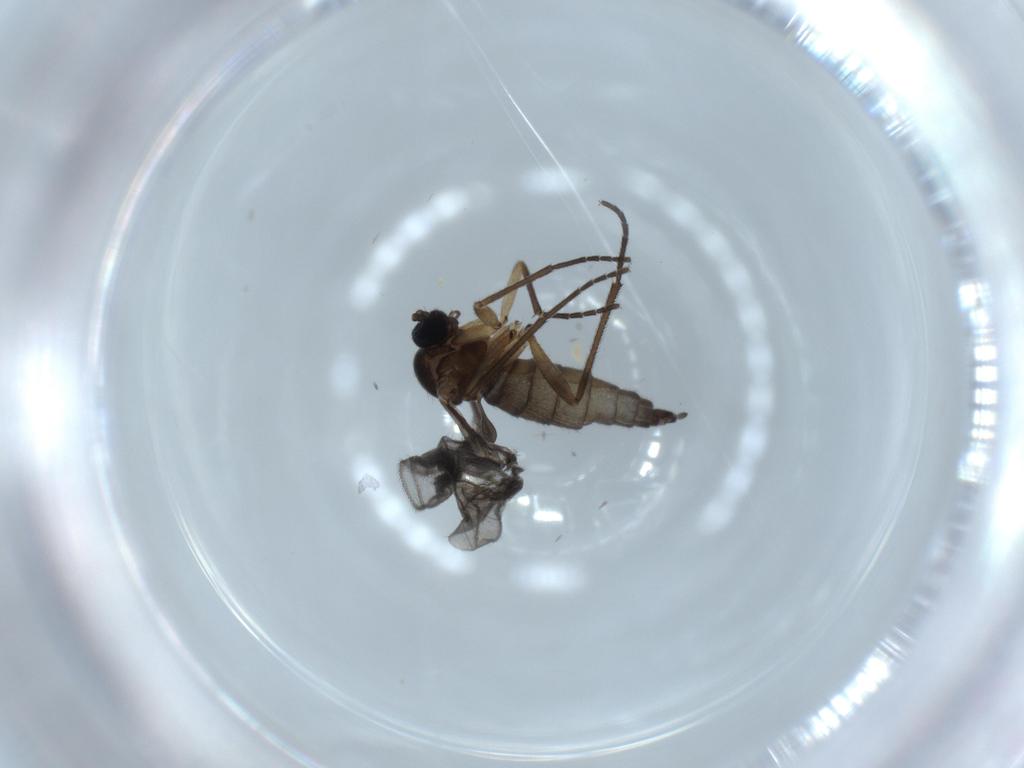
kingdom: Animalia
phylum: Arthropoda
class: Insecta
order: Diptera
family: Sciaridae
